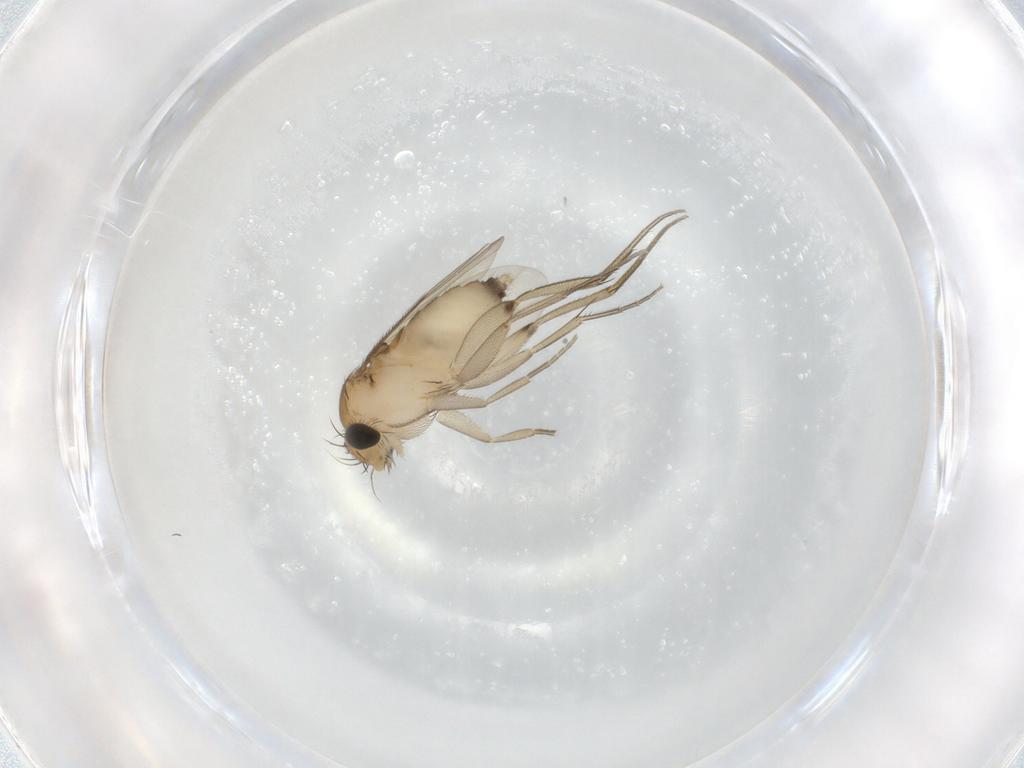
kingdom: Animalia
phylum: Arthropoda
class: Insecta
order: Diptera
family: Phoridae
